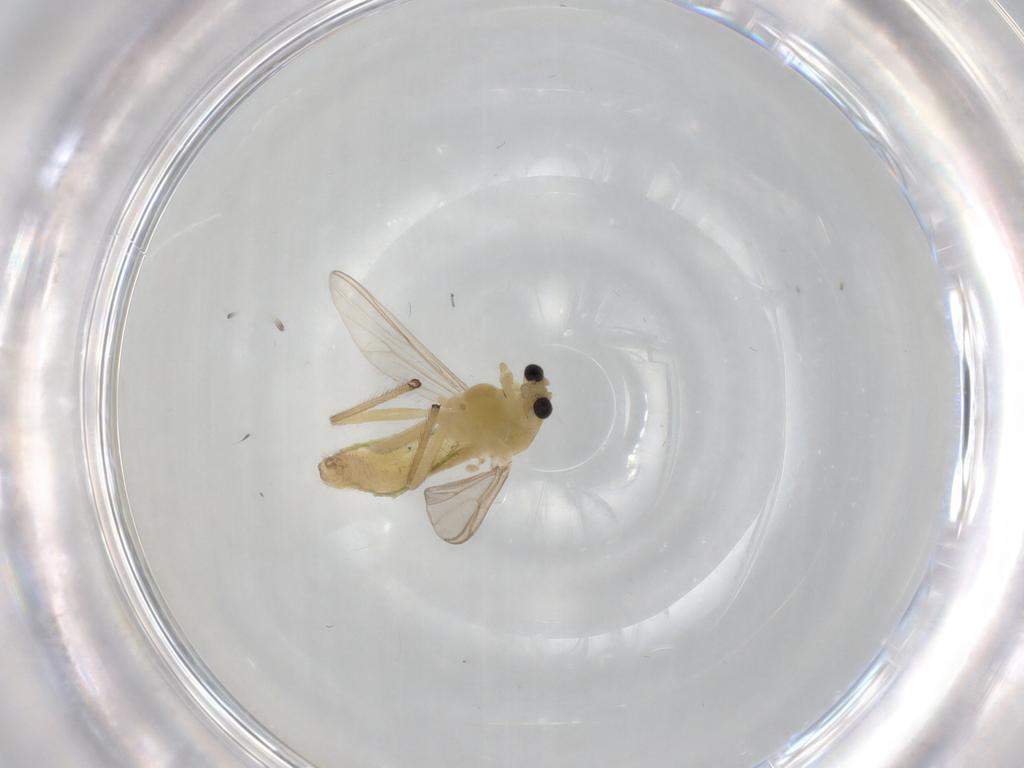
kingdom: Animalia
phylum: Arthropoda
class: Insecta
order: Diptera
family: Chironomidae
